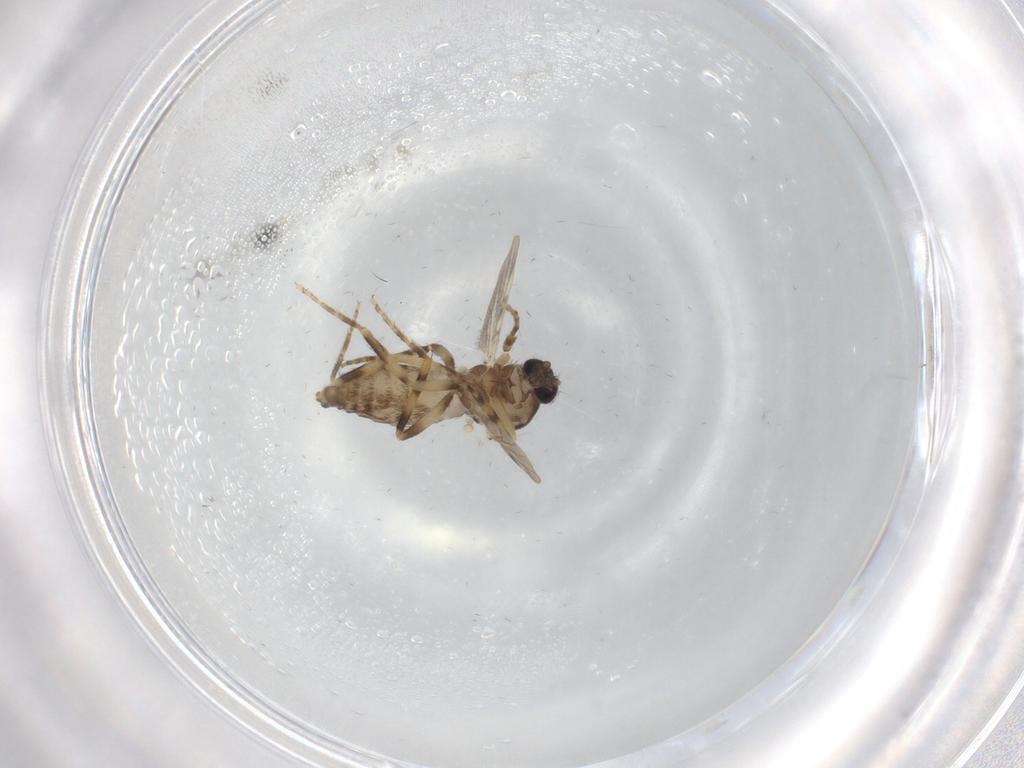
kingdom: Animalia
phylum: Arthropoda
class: Insecta
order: Diptera
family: Ceratopogonidae
